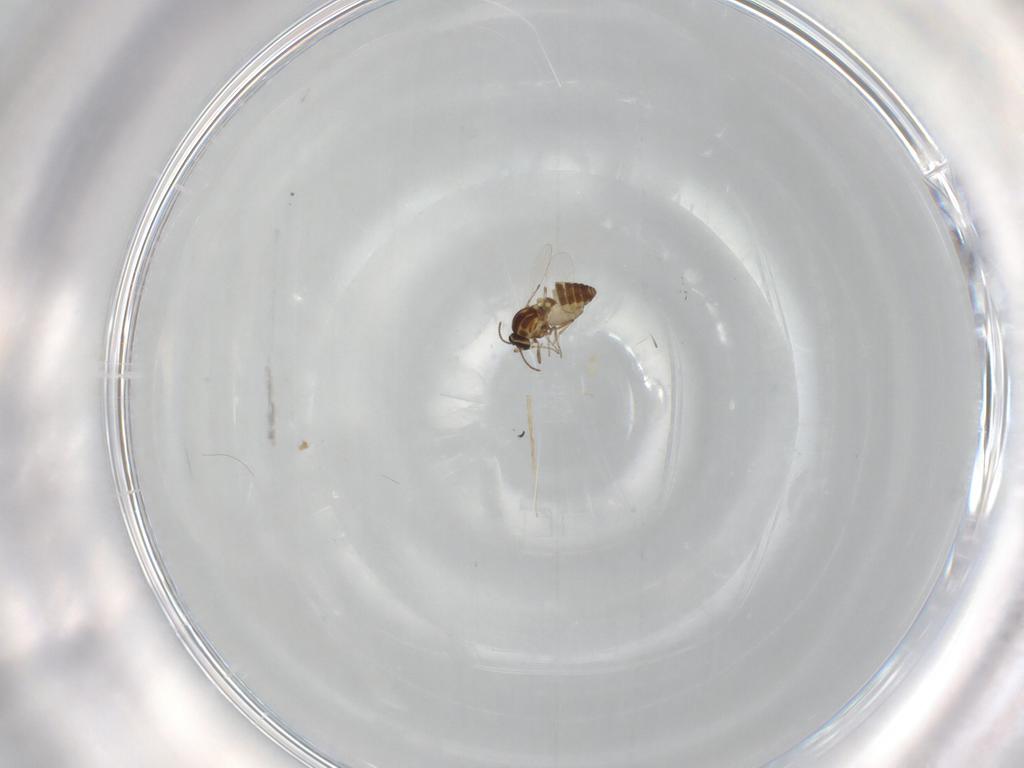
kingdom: Animalia
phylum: Arthropoda
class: Insecta
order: Diptera
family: Ceratopogonidae
